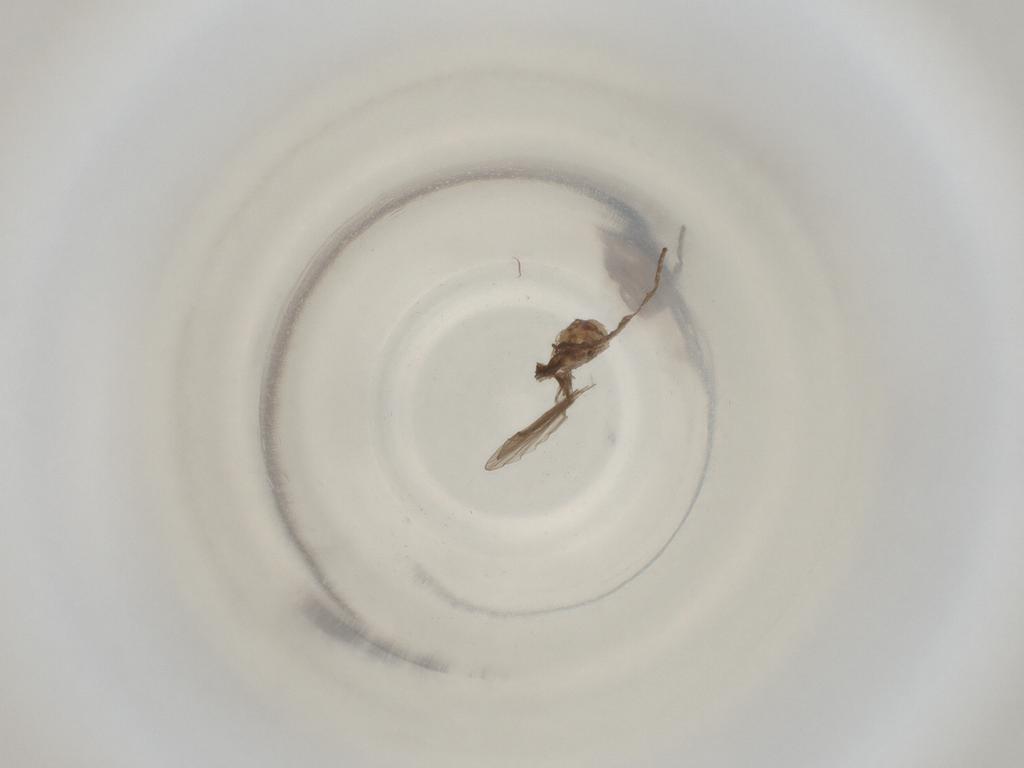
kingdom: Animalia
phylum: Arthropoda
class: Insecta
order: Diptera
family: Cecidomyiidae
